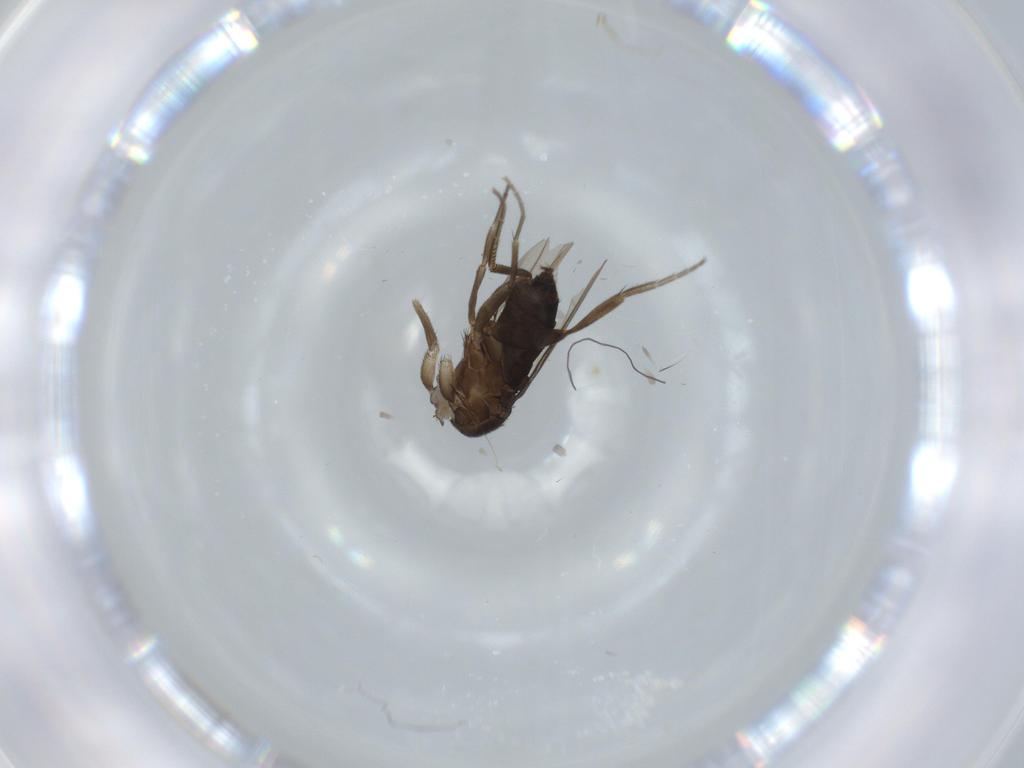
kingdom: Animalia
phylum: Arthropoda
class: Insecta
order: Diptera
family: Phoridae
